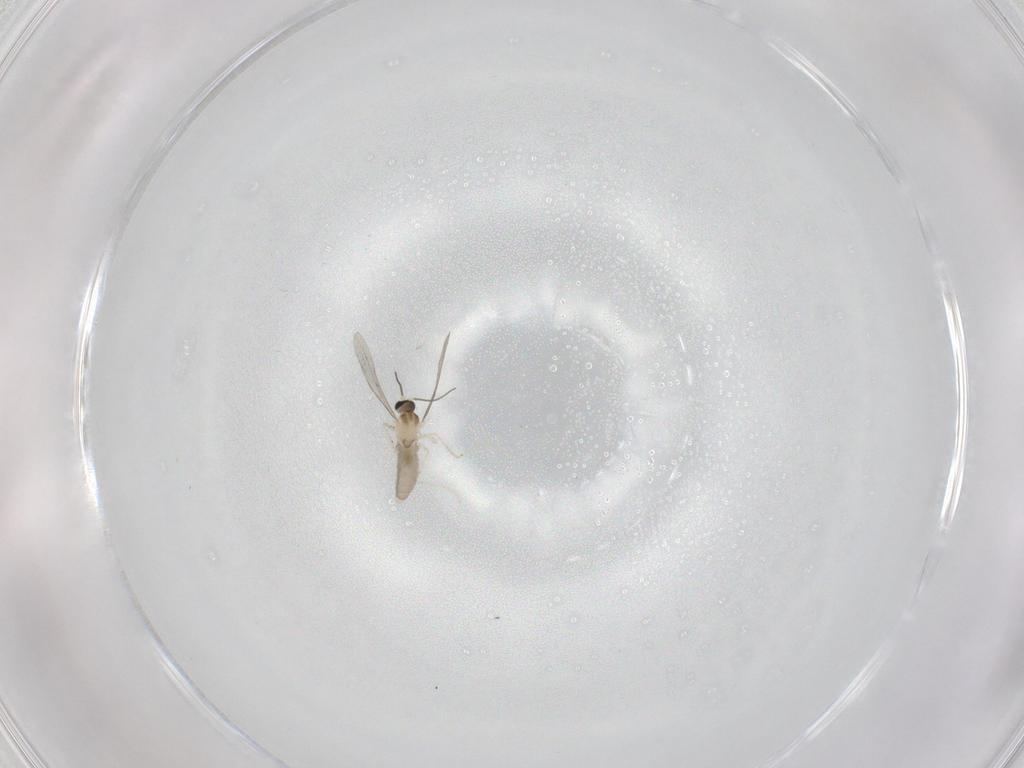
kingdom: Animalia
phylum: Arthropoda
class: Insecta
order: Diptera
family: Cecidomyiidae
